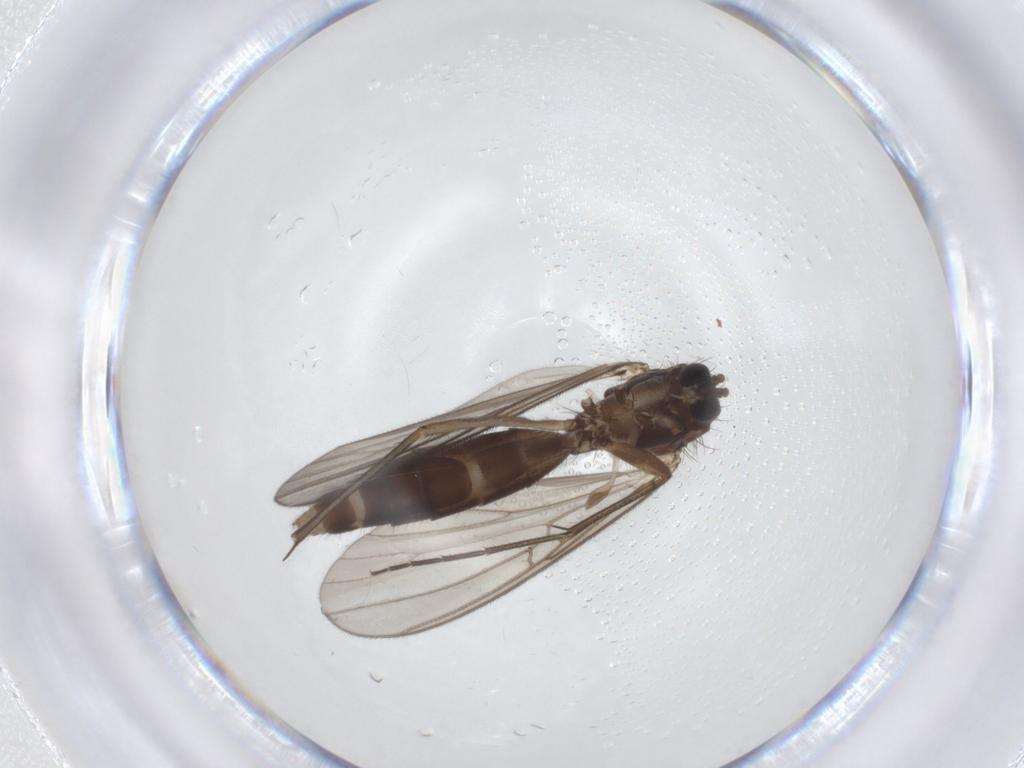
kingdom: Animalia
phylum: Arthropoda
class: Insecta
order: Diptera
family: Mycetophilidae
